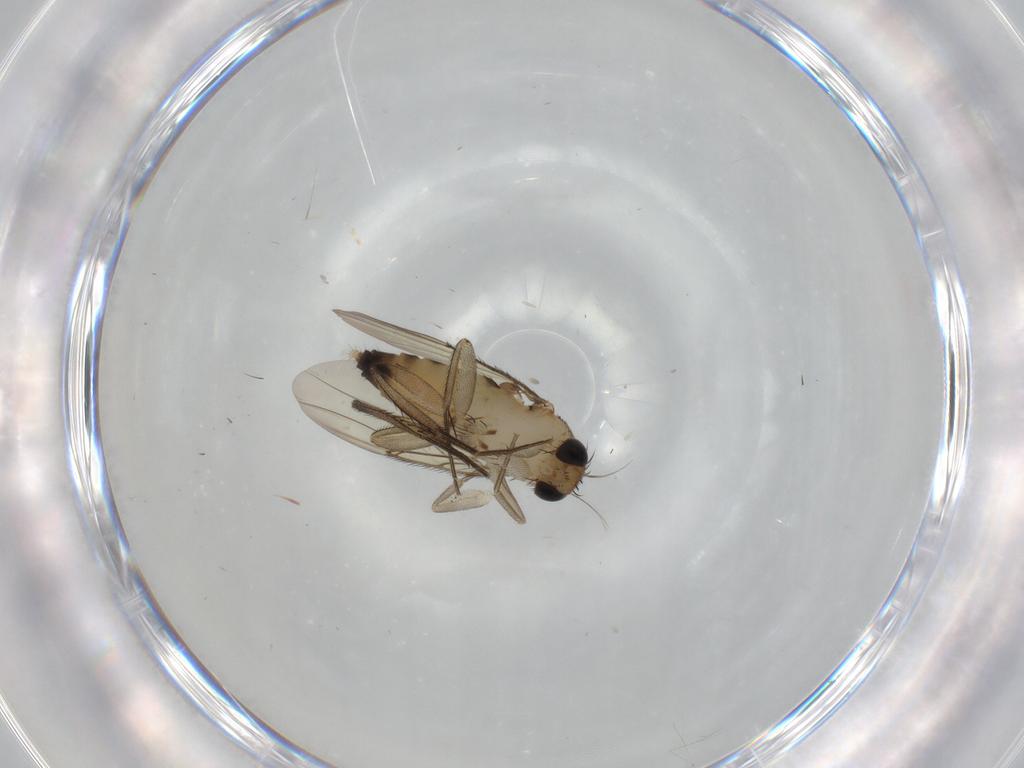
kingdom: Animalia
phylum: Arthropoda
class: Insecta
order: Diptera
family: Phoridae
